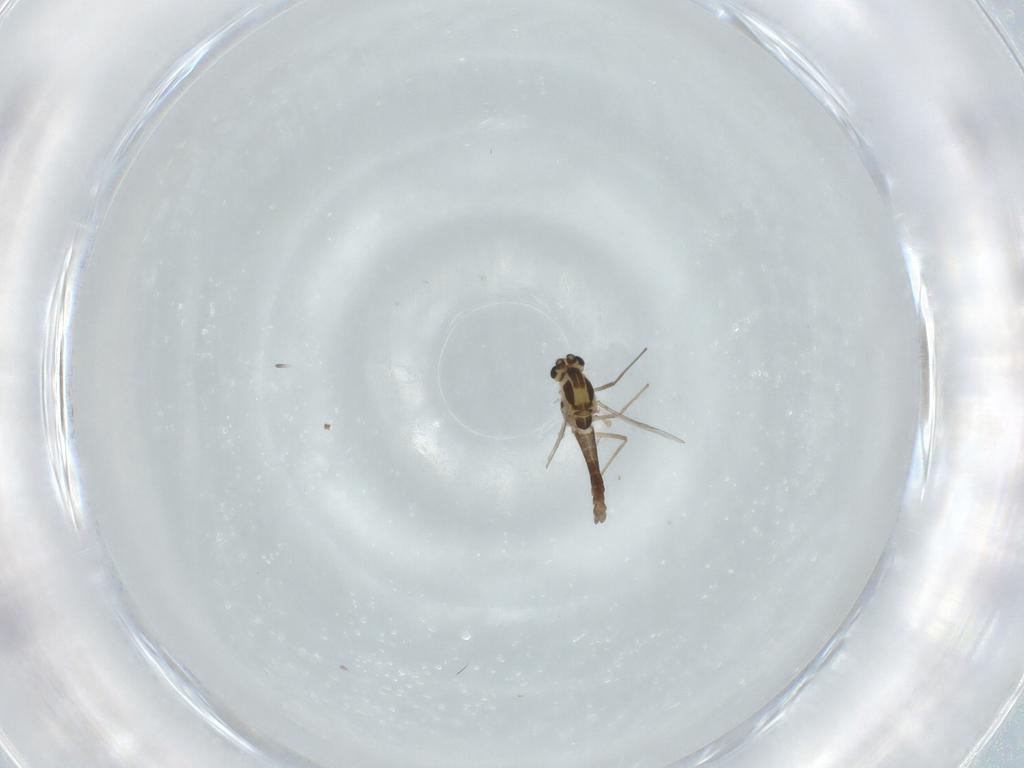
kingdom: Animalia
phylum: Arthropoda
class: Insecta
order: Diptera
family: Chironomidae
